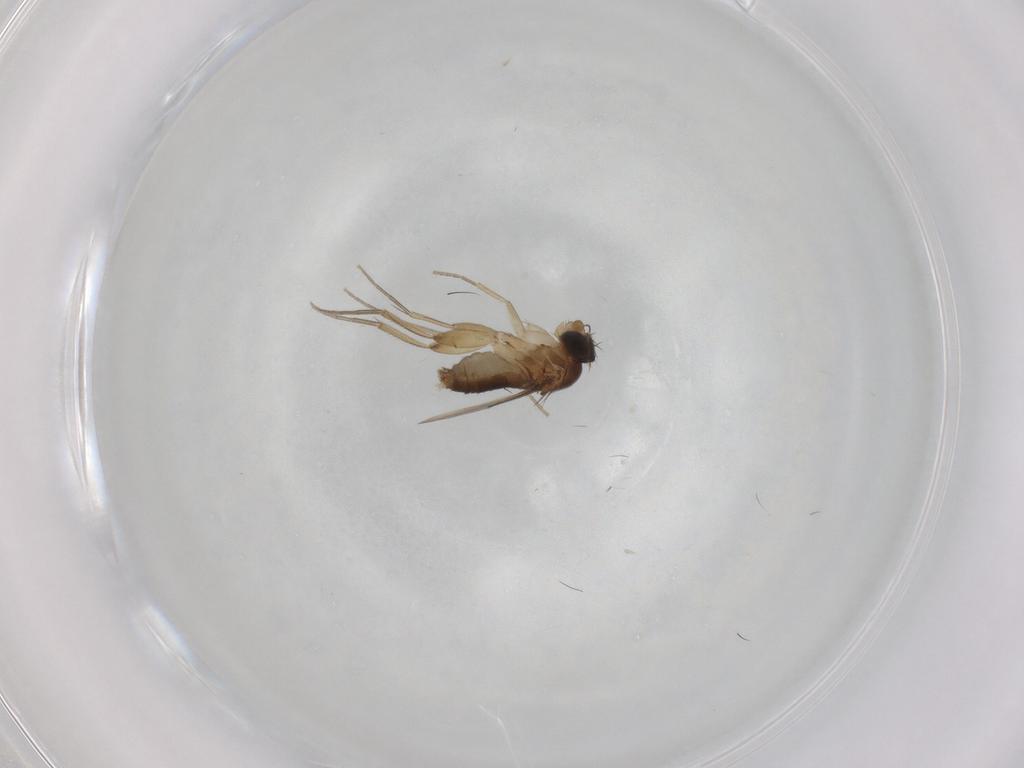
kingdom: Animalia
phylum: Arthropoda
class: Insecta
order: Diptera
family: Phoridae
